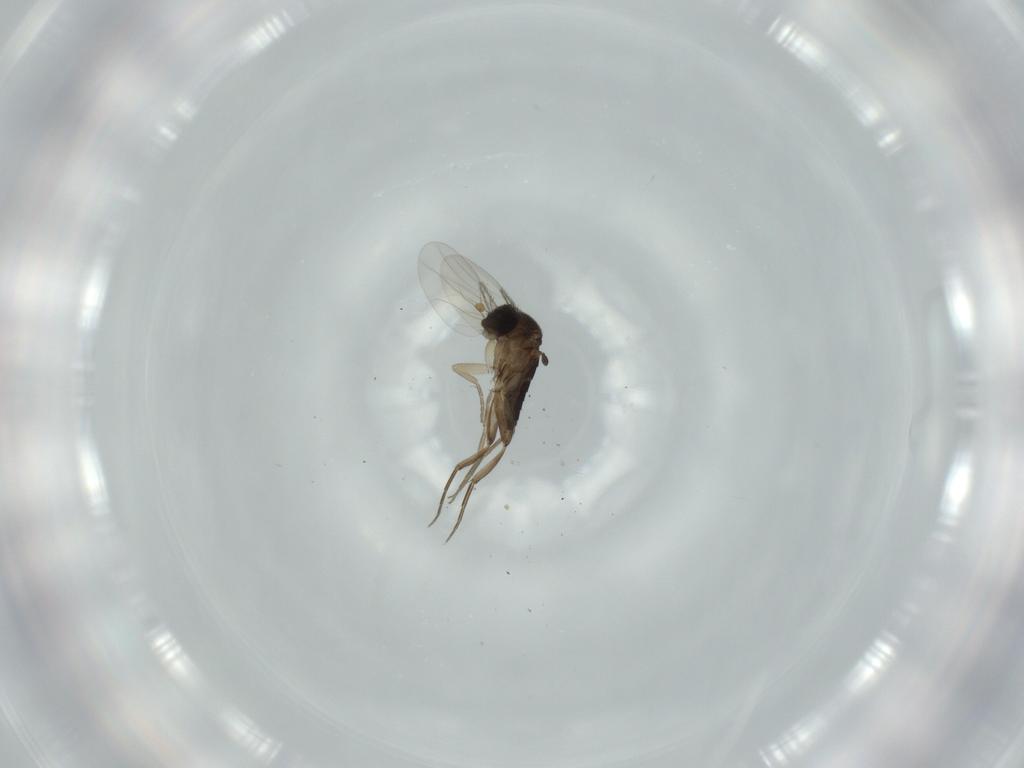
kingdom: Animalia
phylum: Arthropoda
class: Insecta
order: Diptera
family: Phoridae
